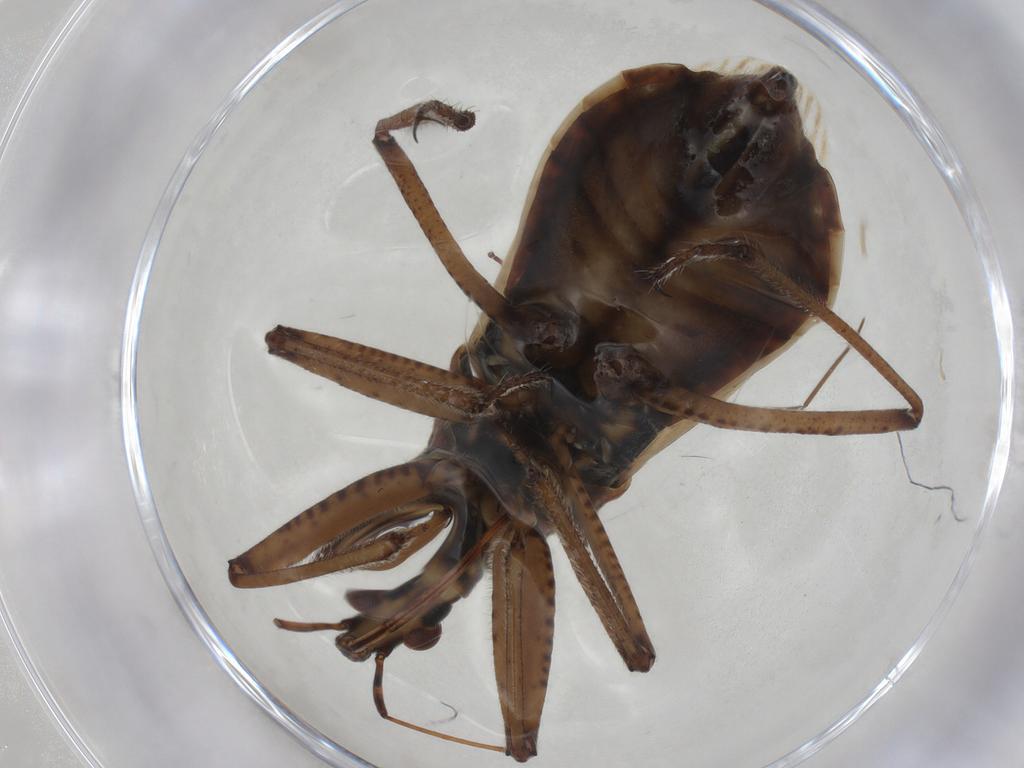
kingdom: Animalia
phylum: Arthropoda
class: Insecta
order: Hemiptera
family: Nabidae
